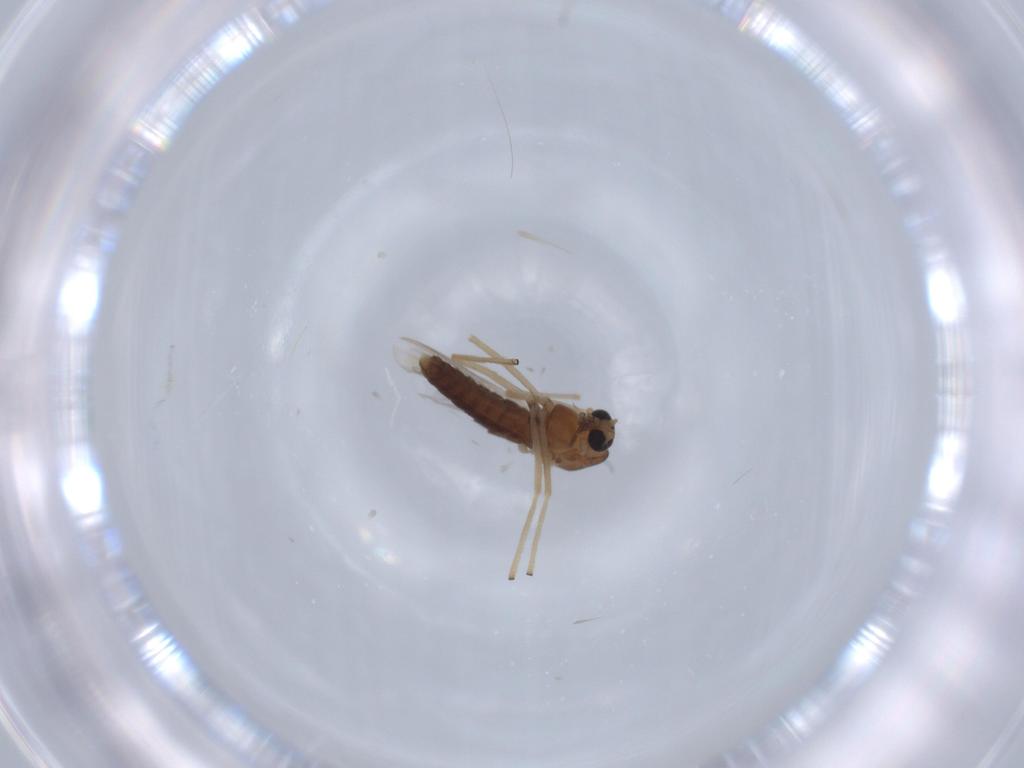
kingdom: Animalia
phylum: Arthropoda
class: Insecta
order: Diptera
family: Chironomidae
